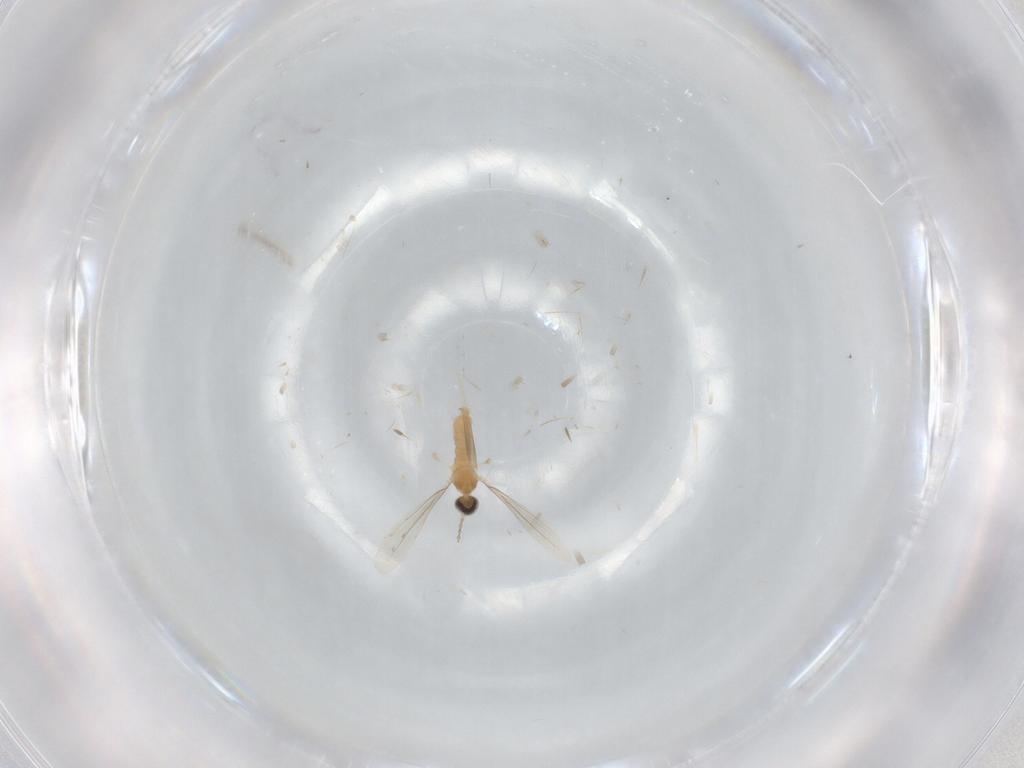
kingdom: Animalia
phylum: Arthropoda
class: Insecta
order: Diptera
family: Cecidomyiidae
